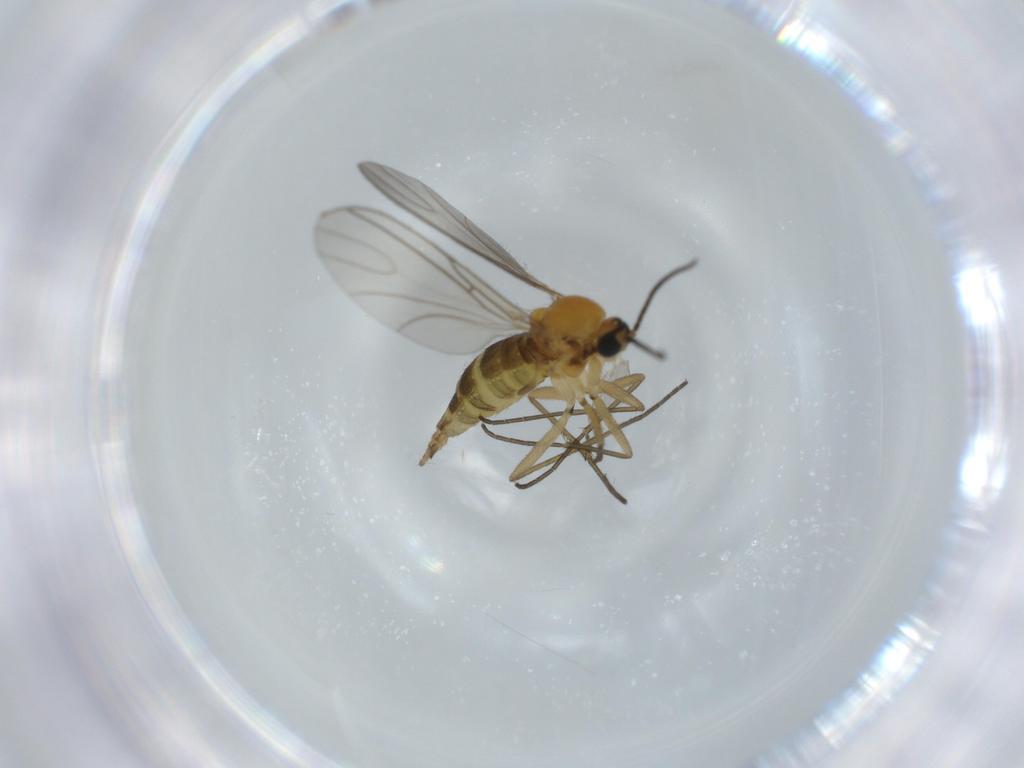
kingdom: Animalia
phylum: Arthropoda
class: Insecta
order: Diptera
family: Sciaridae
